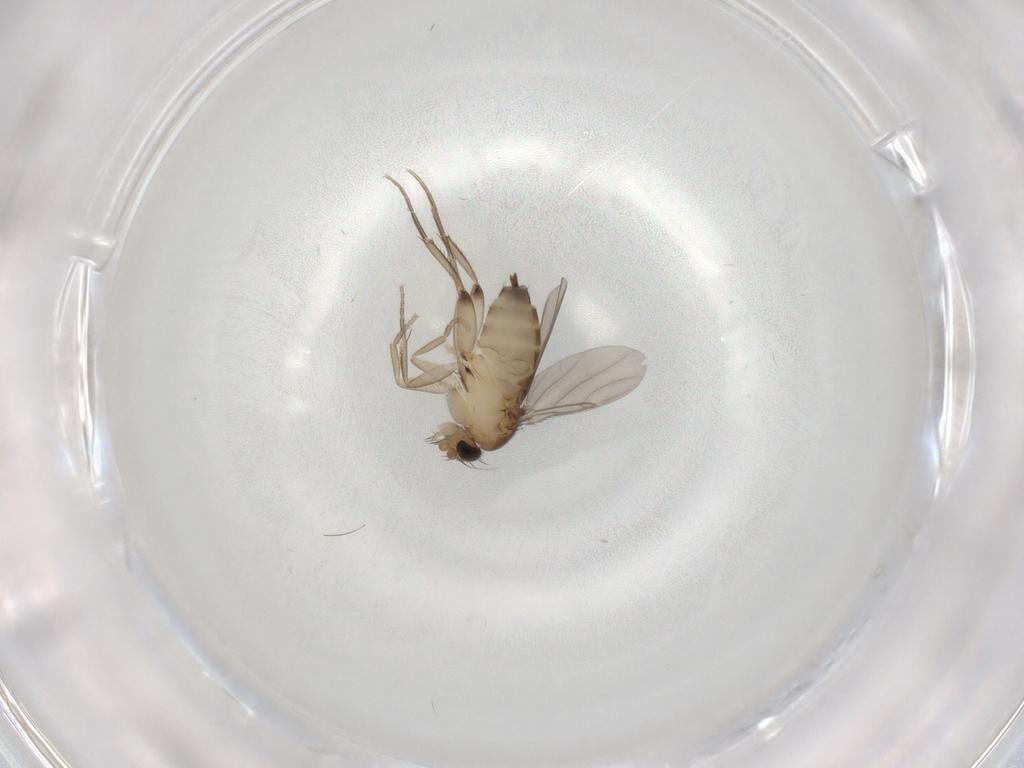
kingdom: Animalia
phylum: Arthropoda
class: Insecta
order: Diptera
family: Phoridae
